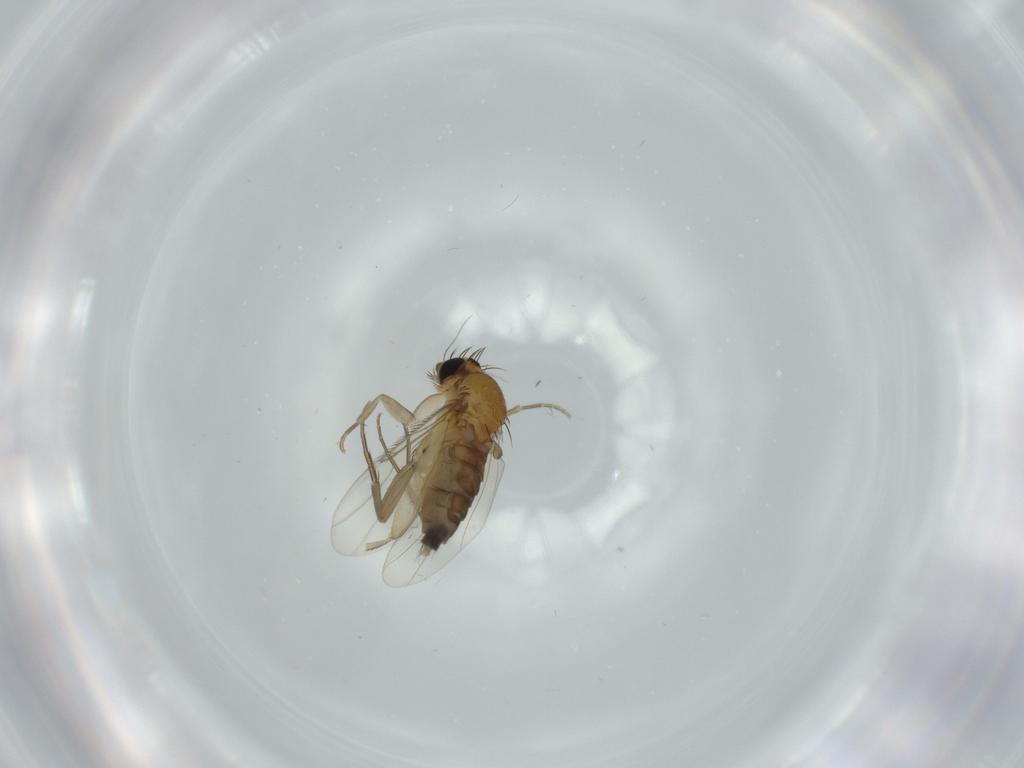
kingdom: Animalia
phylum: Arthropoda
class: Insecta
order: Diptera
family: Phoridae
